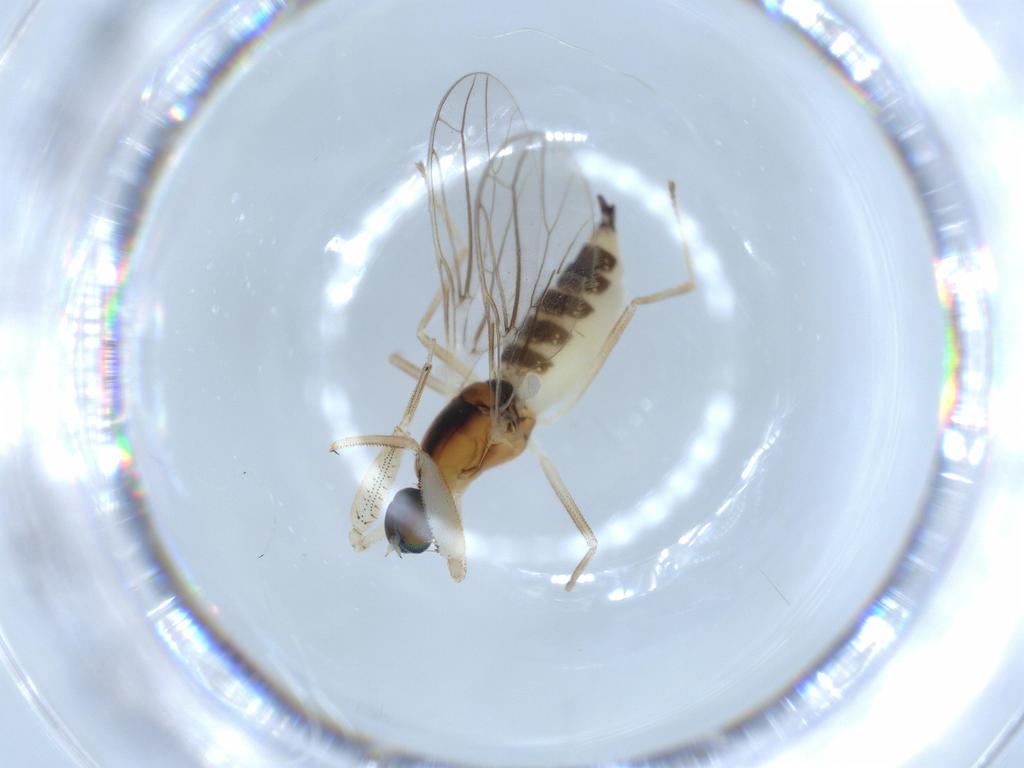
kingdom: Animalia
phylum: Arthropoda
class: Insecta
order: Diptera
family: Empididae
